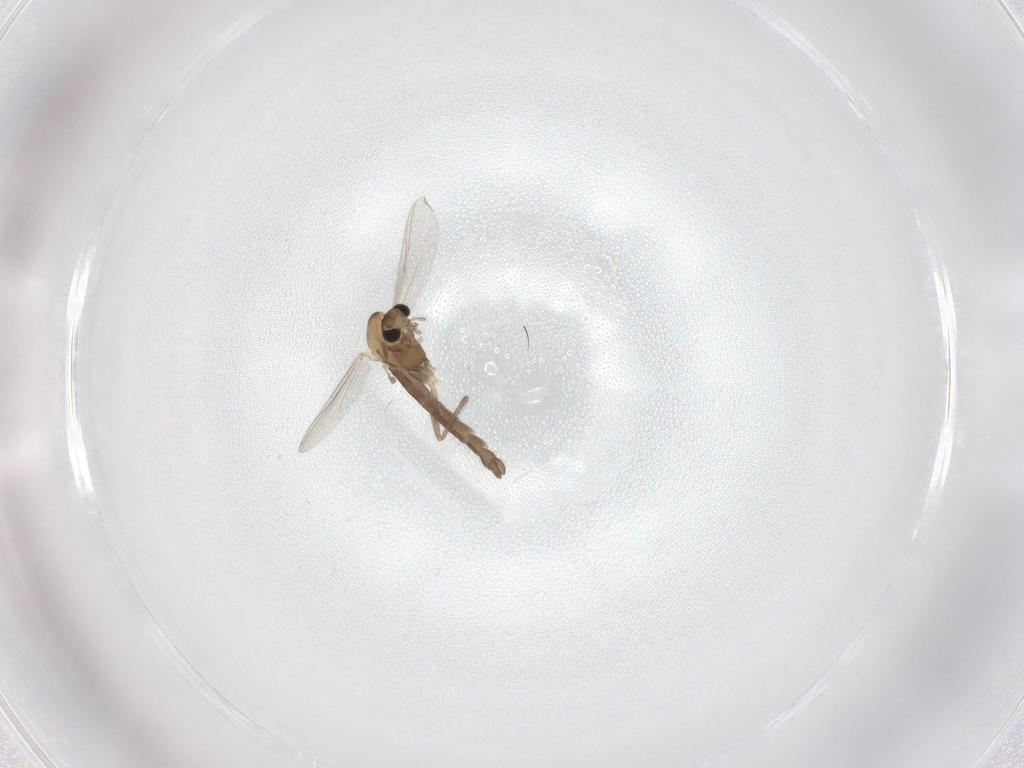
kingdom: Animalia
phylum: Arthropoda
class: Insecta
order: Diptera
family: Chironomidae
